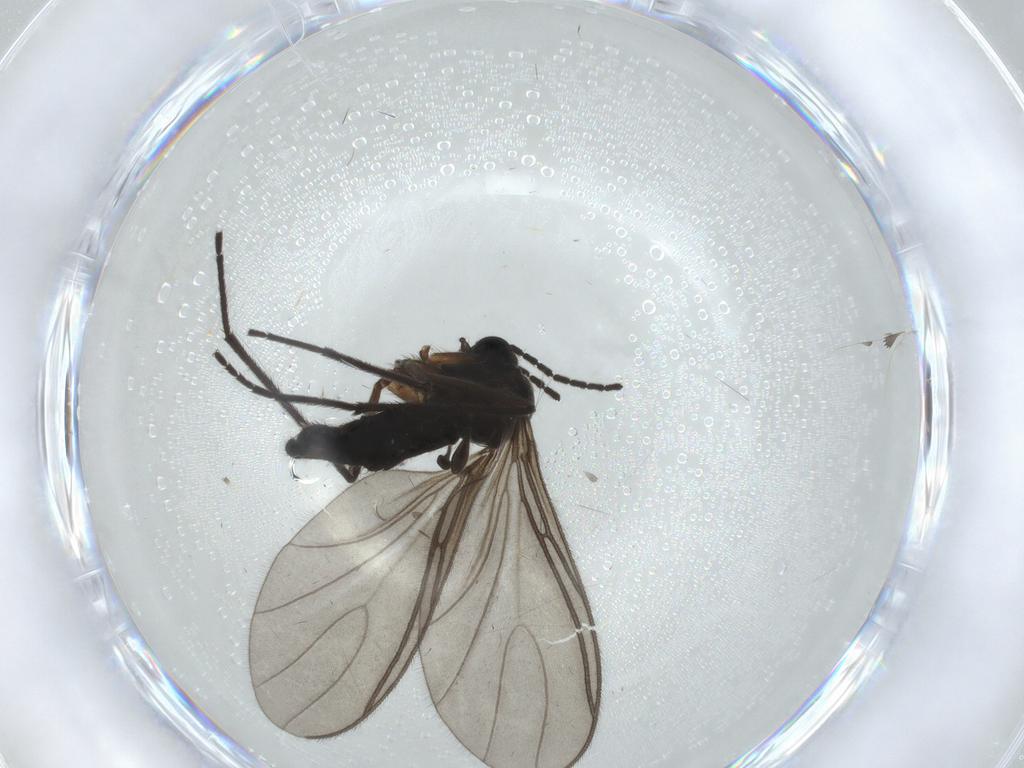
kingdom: Animalia
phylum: Arthropoda
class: Insecta
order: Diptera
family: Sciaridae
